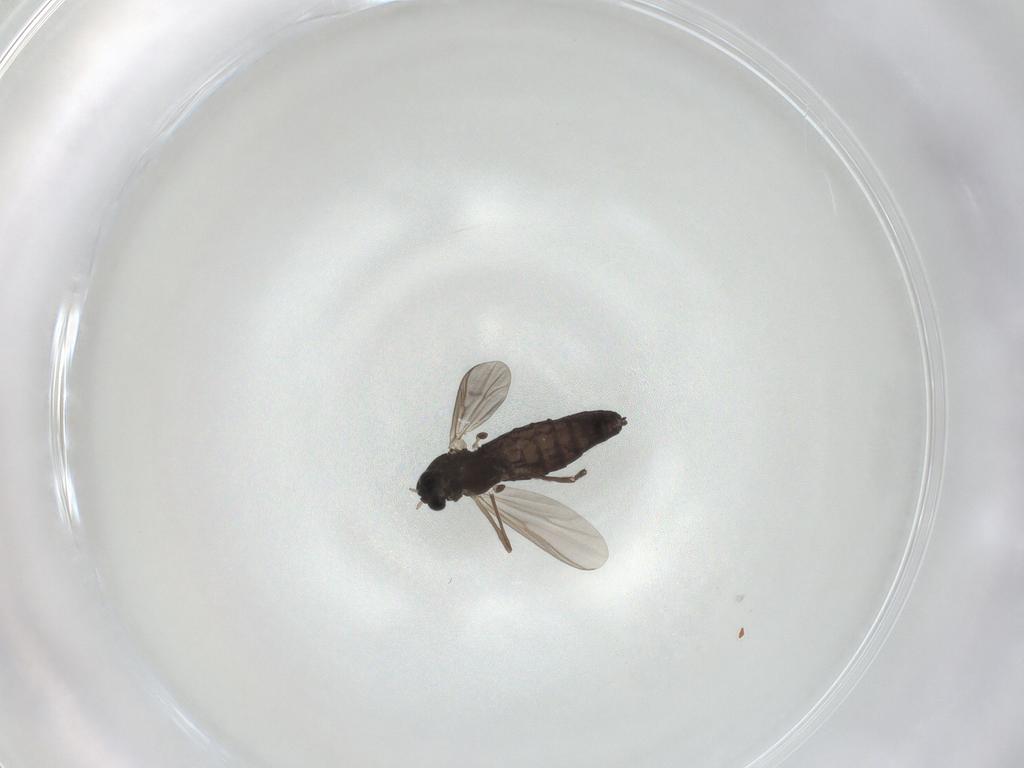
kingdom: Animalia
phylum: Arthropoda
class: Insecta
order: Diptera
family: Chironomidae
